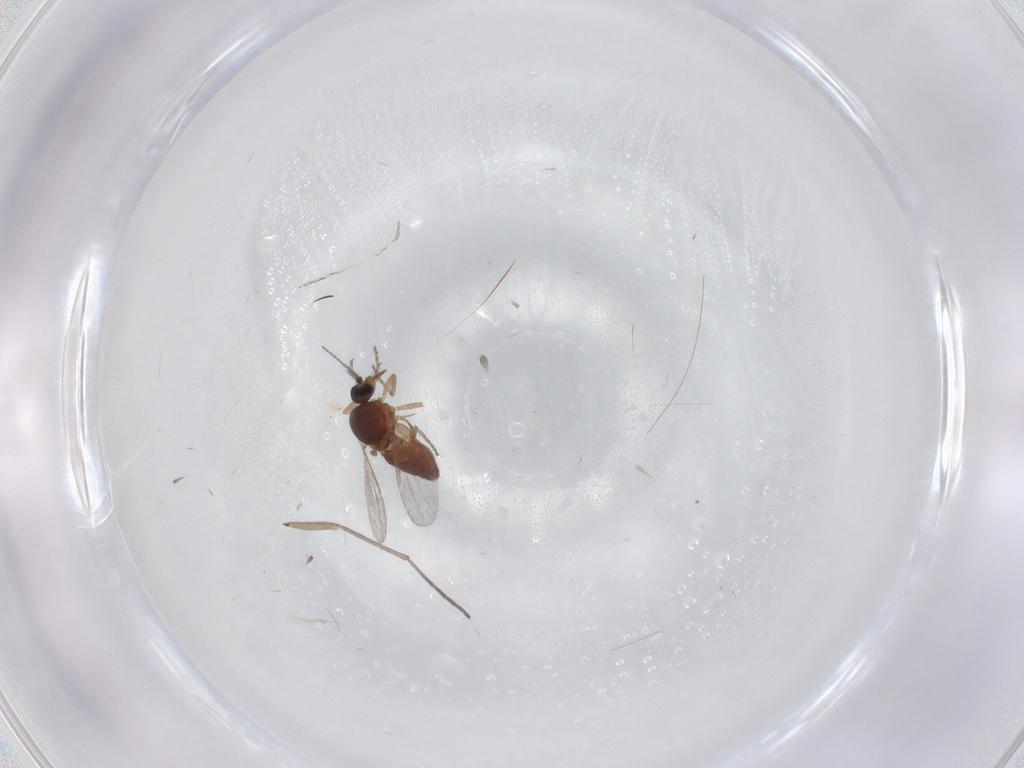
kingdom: Animalia
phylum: Arthropoda
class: Insecta
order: Diptera
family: Ceratopogonidae
